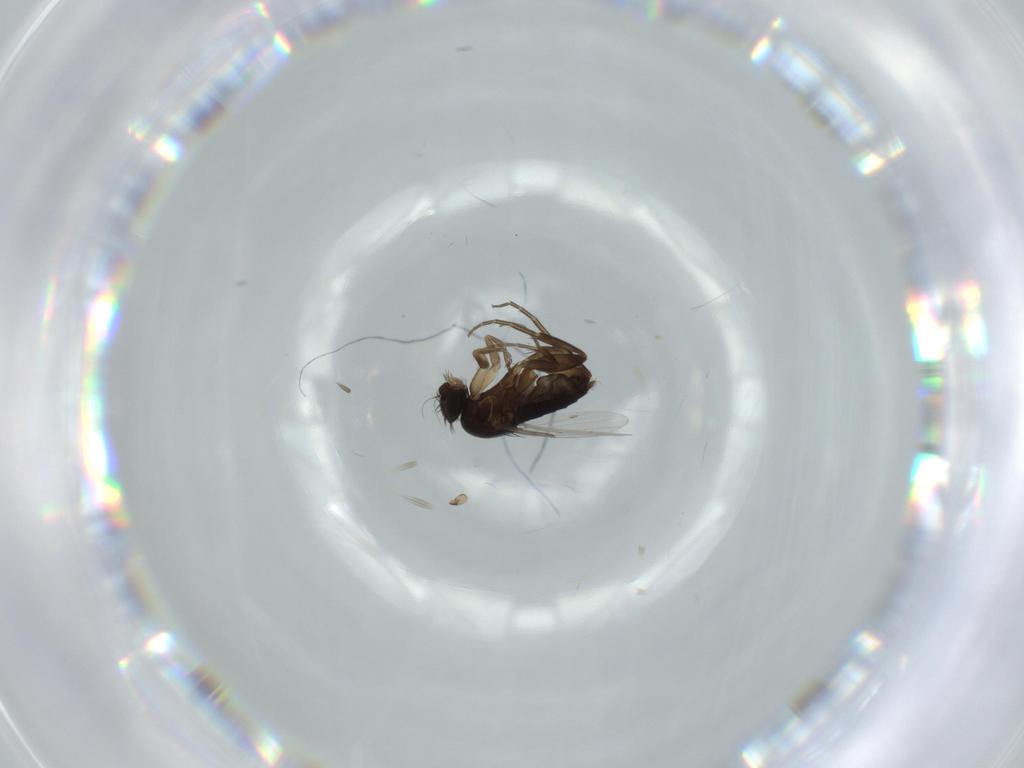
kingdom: Animalia
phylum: Arthropoda
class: Insecta
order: Diptera
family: Phoridae
